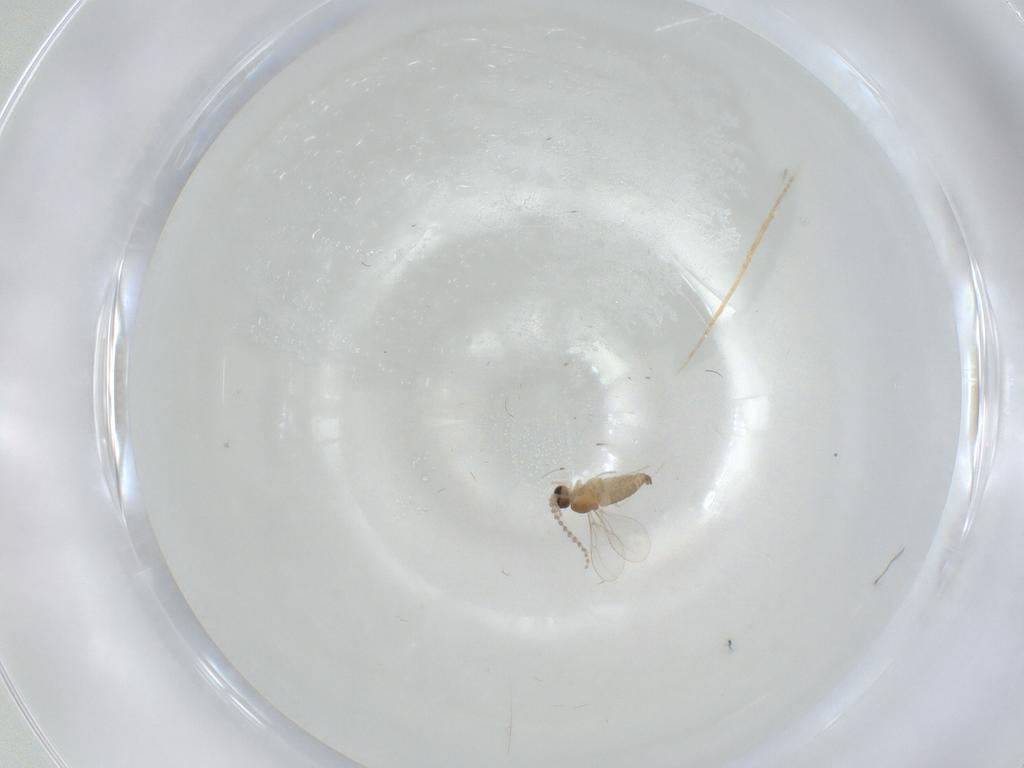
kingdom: Animalia
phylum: Arthropoda
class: Insecta
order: Diptera
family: Cecidomyiidae
